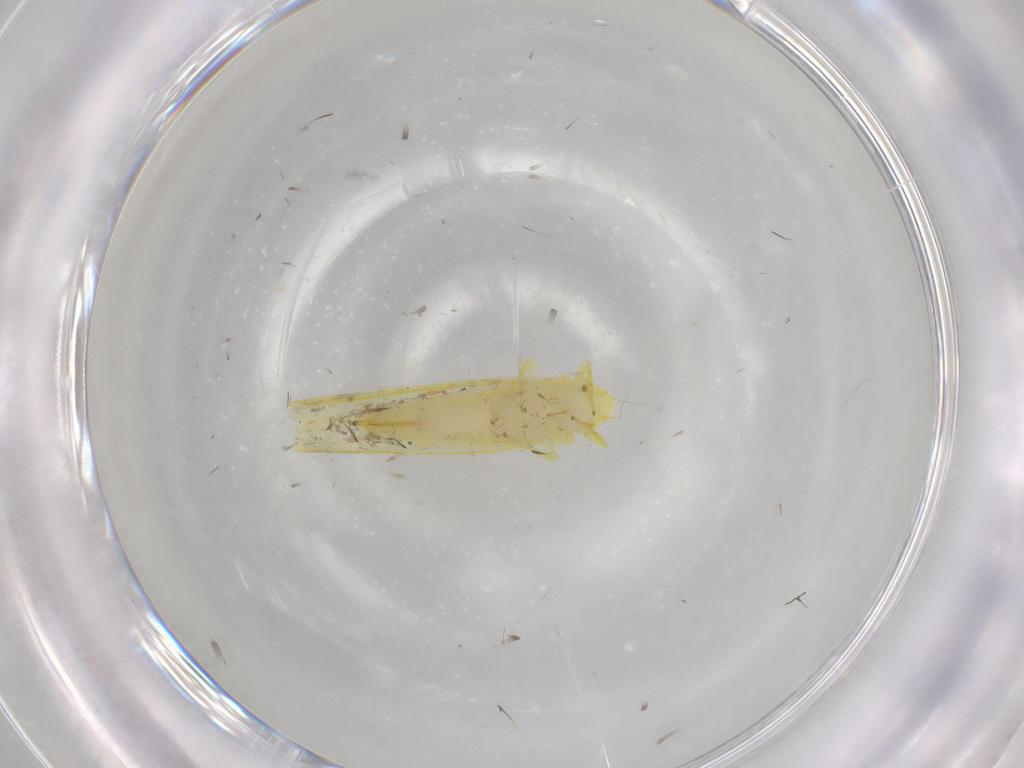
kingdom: Animalia
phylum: Arthropoda
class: Insecta
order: Hemiptera
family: Cicadellidae
